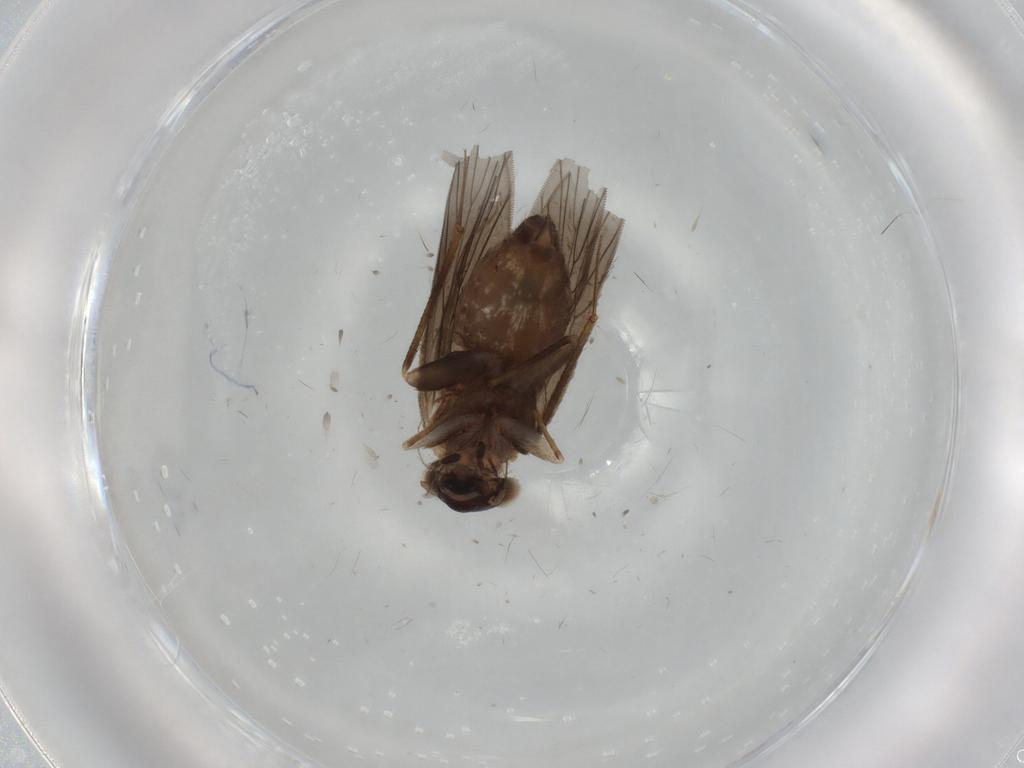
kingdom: Animalia
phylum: Arthropoda
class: Insecta
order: Psocodea
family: Lepidopsocidae
